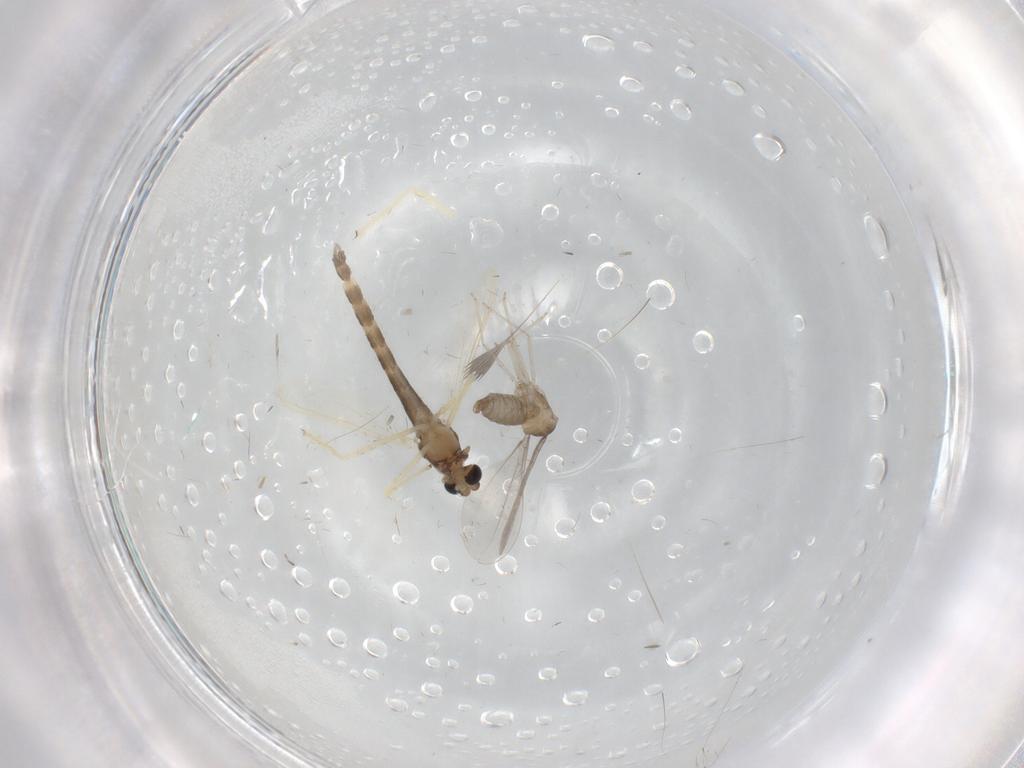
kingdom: Animalia
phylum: Arthropoda
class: Insecta
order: Diptera
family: Chironomidae
